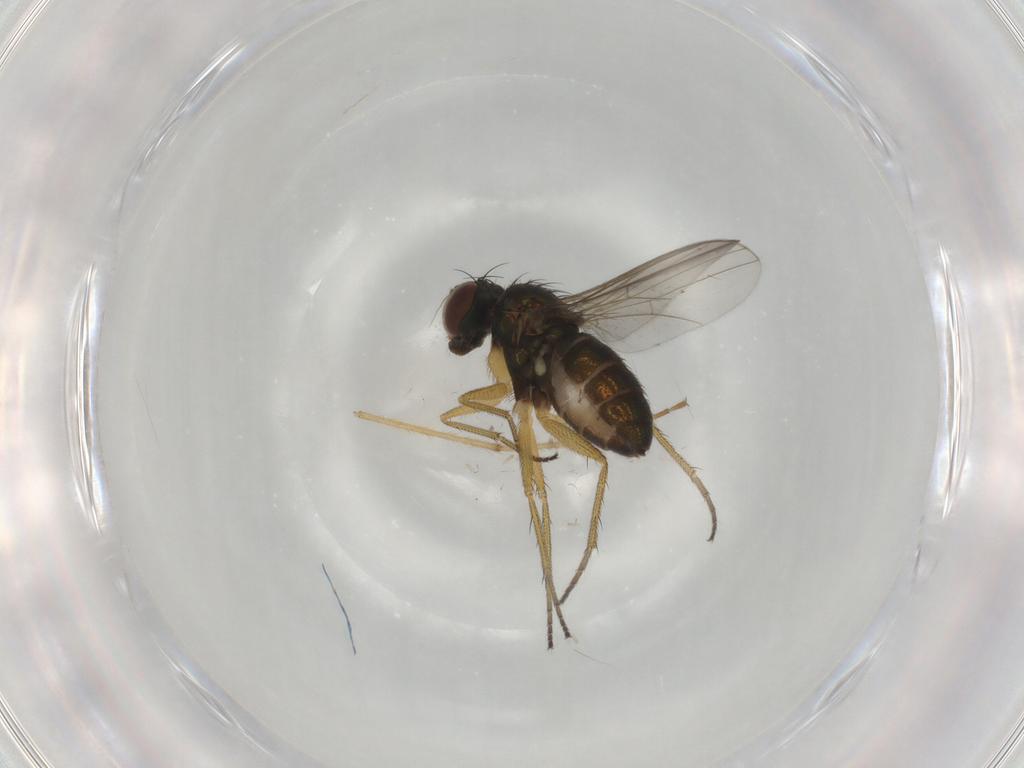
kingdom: Animalia
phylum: Arthropoda
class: Insecta
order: Diptera
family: Dolichopodidae
